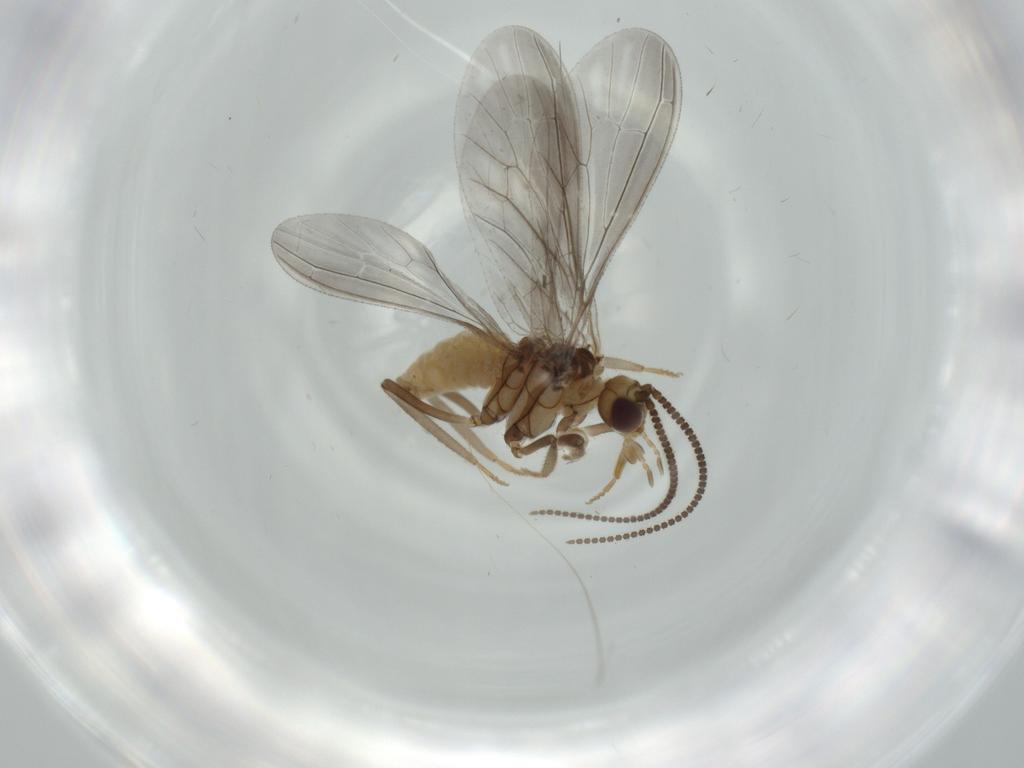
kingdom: Animalia
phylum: Arthropoda
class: Insecta
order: Neuroptera
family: Coniopterygidae
